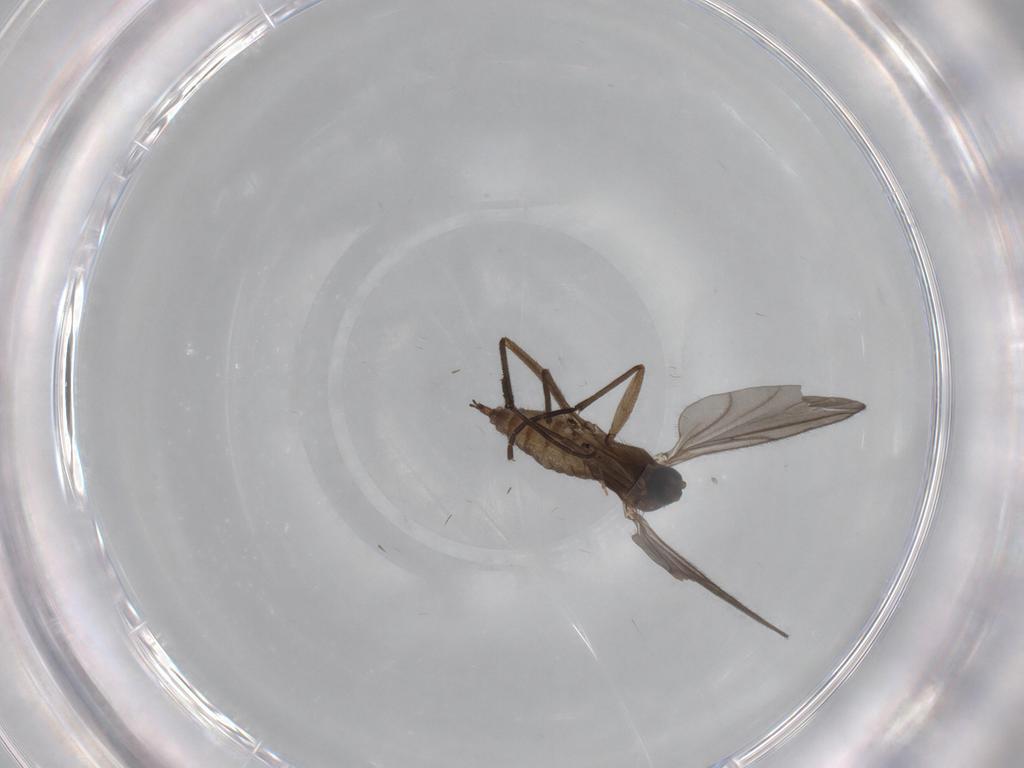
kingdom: Animalia
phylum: Arthropoda
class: Insecta
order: Diptera
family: Sciaridae
